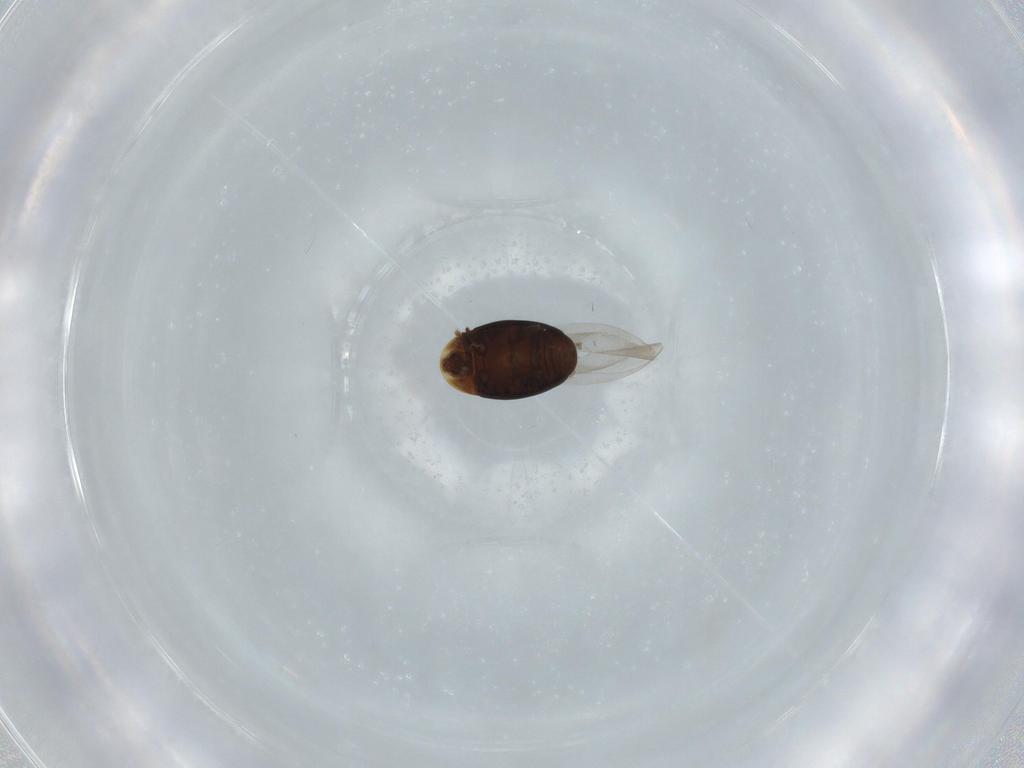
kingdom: Animalia
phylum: Arthropoda
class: Insecta
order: Coleoptera
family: Corylophidae
